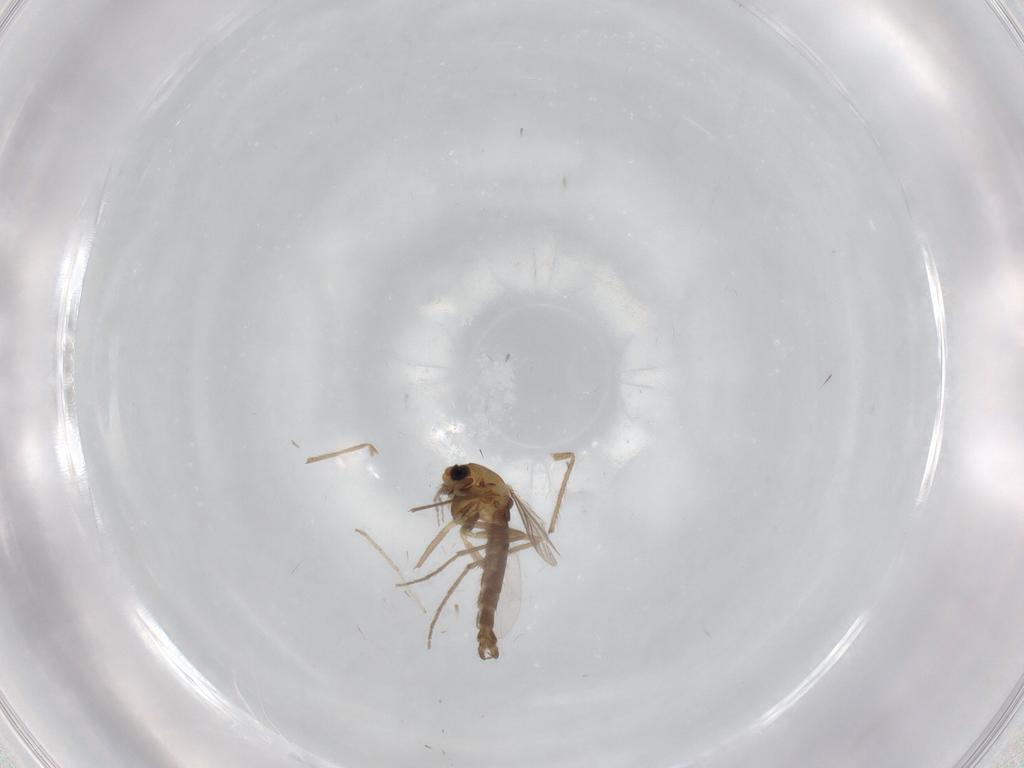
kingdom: Animalia
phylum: Arthropoda
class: Insecta
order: Diptera
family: Chironomidae
